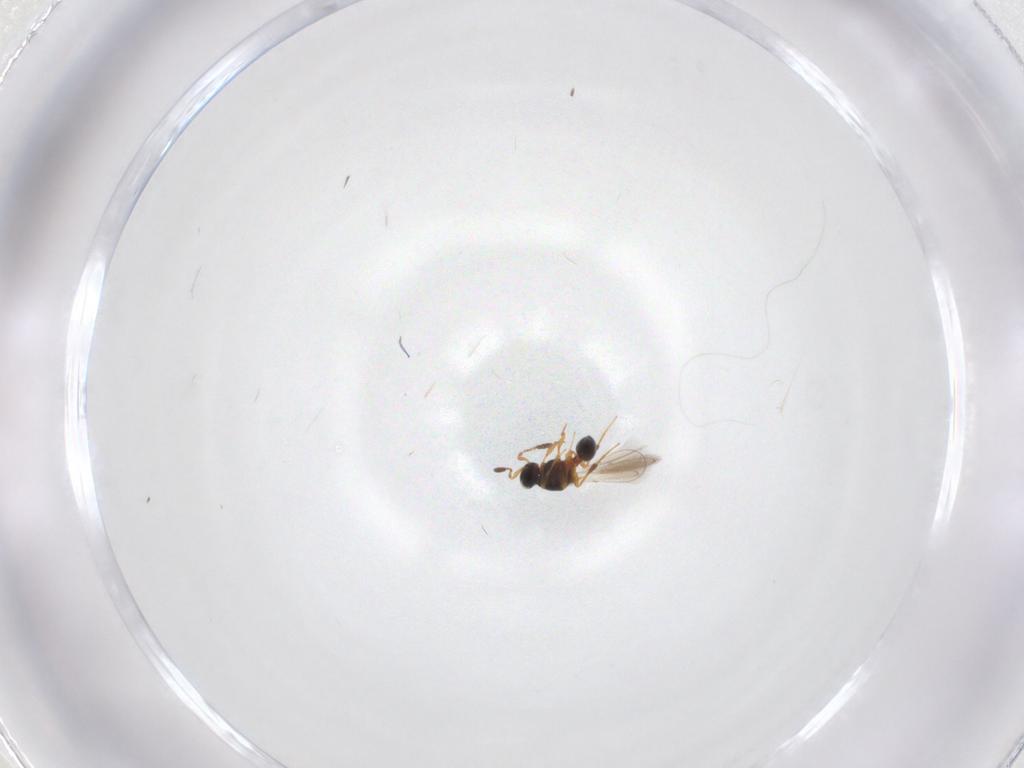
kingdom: Animalia
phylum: Arthropoda
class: Insecta
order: Hymenoptera
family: Platygastridae
